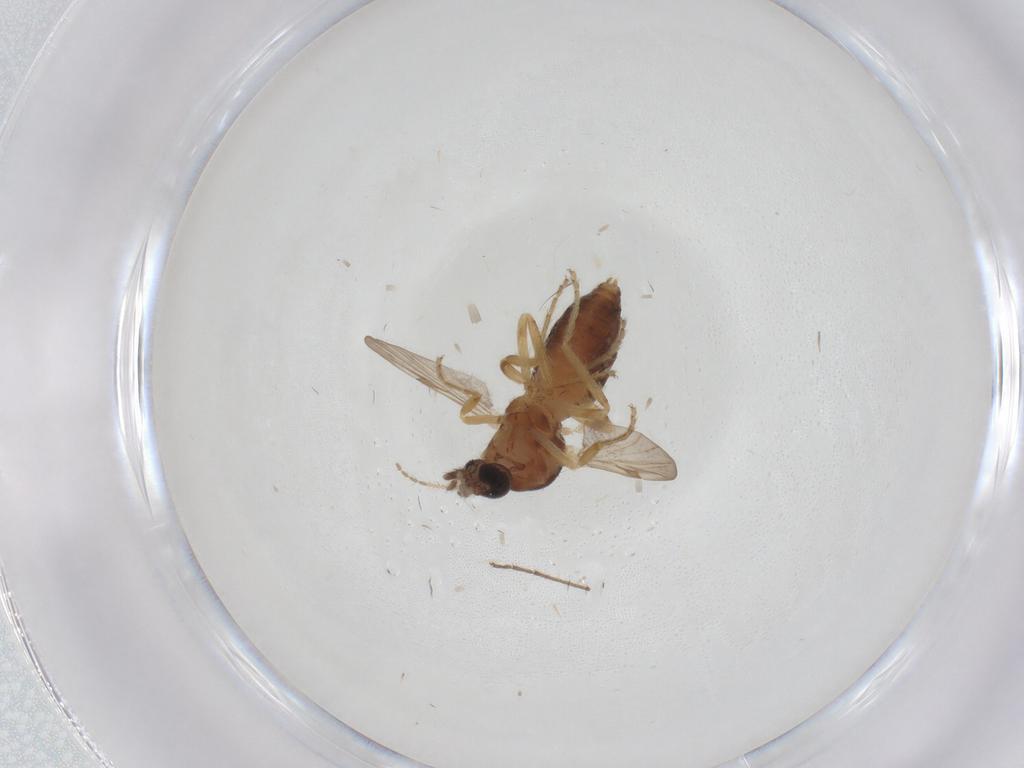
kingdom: Animalia
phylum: Arthropoda
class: Insecta
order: Diptera
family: Ceratopogonidae
